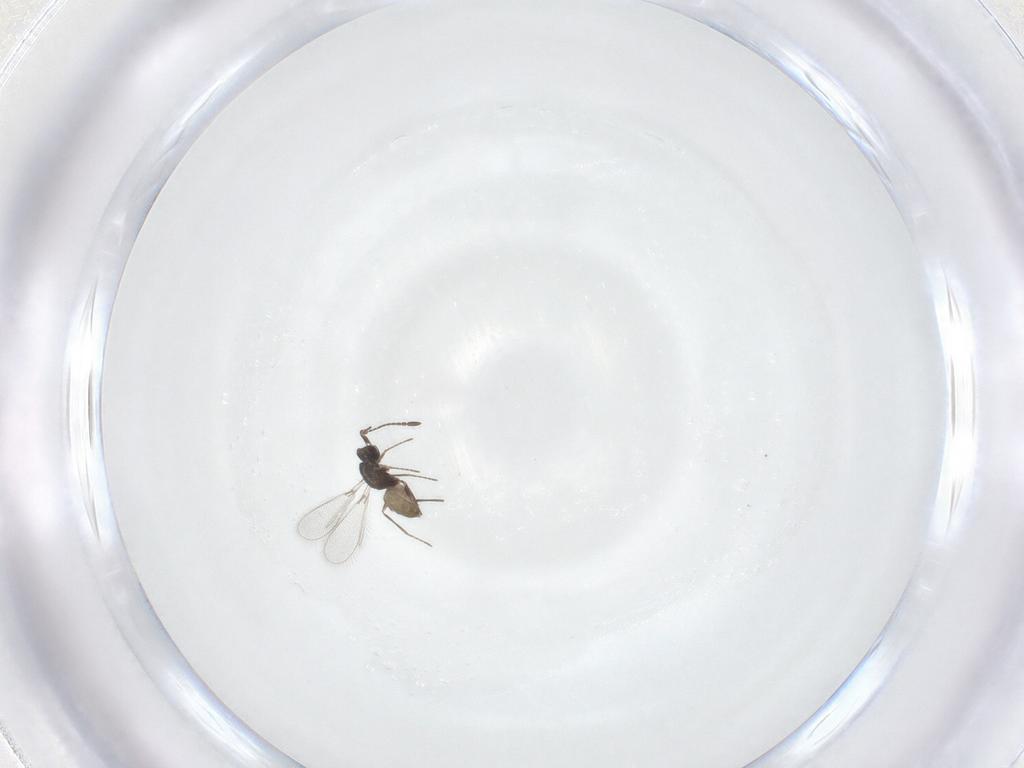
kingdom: Animalia
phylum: Arthropoda
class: Insecta
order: Hymenoptera
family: Mymaridae
